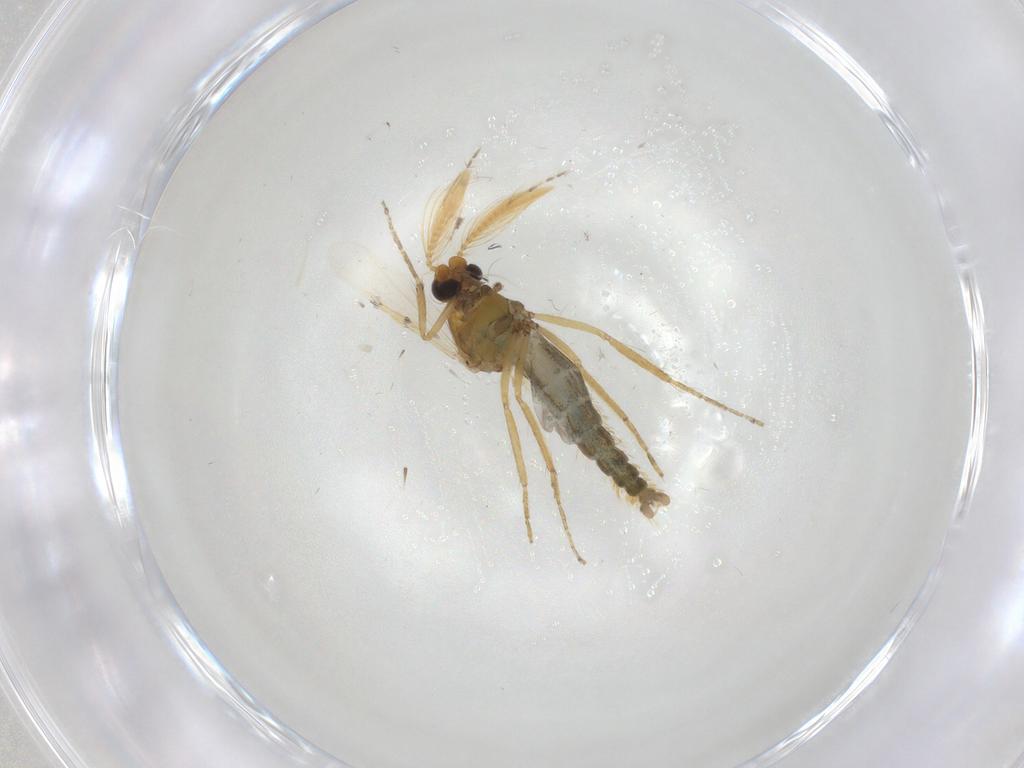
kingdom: Animalia
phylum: Arthropoda
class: Insecta
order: Diptera
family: Ceratopogonidae
